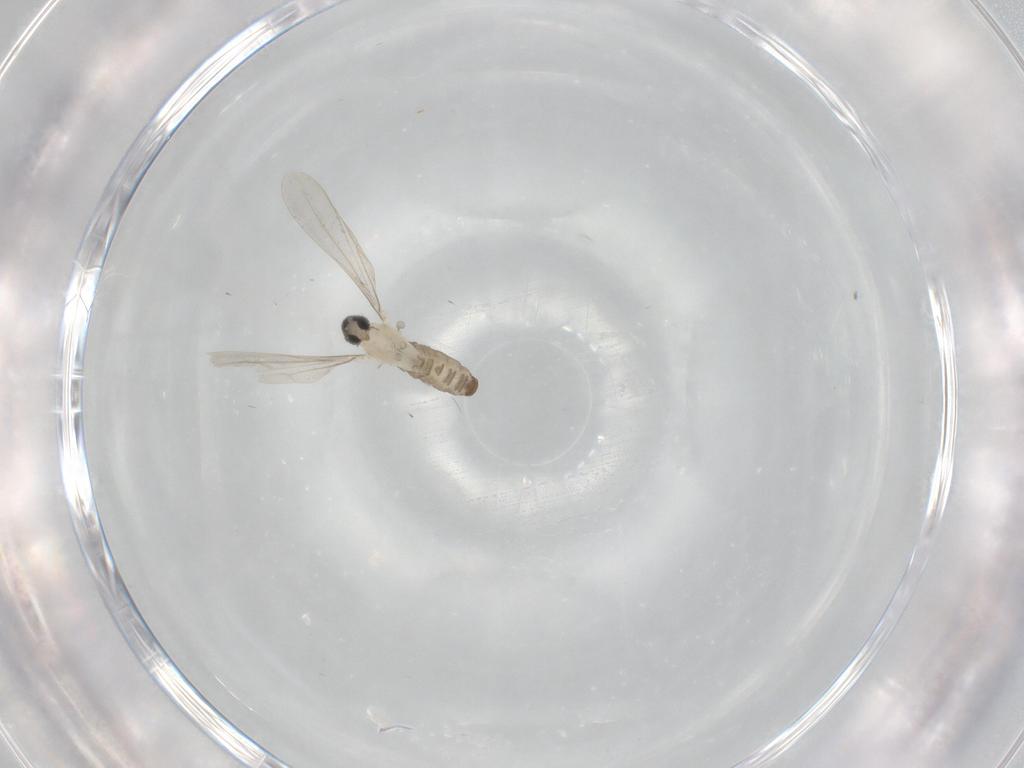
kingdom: Animalia
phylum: Arthropoda
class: Insecta
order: Diptera
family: Cecidomyiidae
